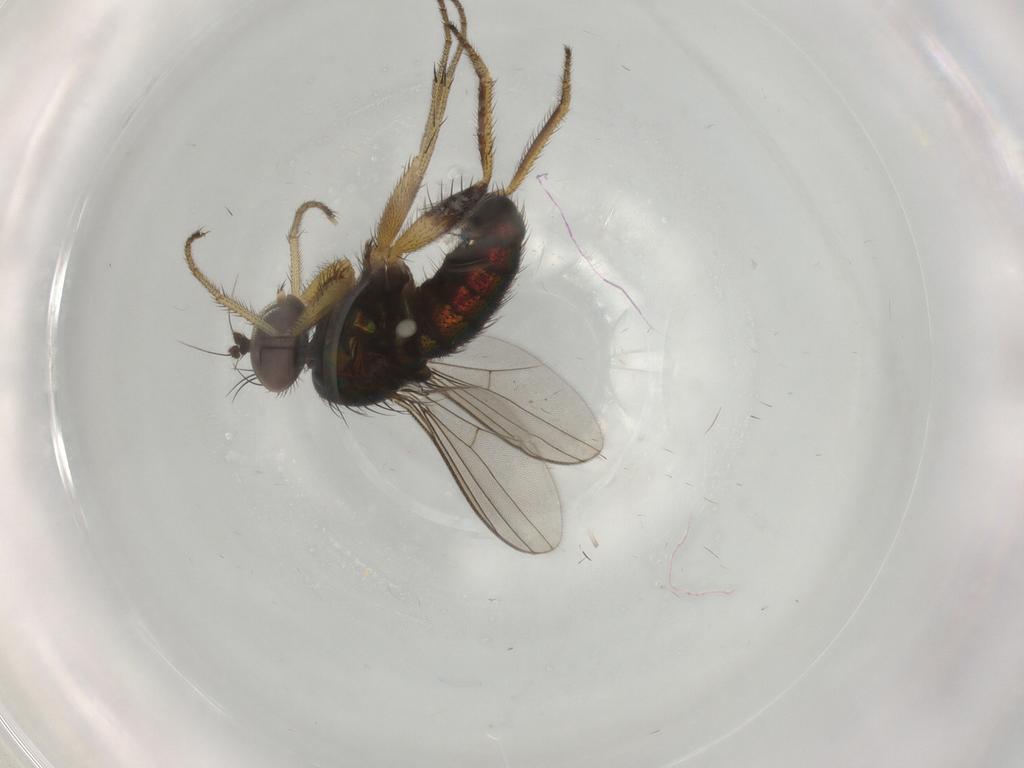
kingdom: Animalia
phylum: Arthropoda
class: Insecta
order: Diptera
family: Dolichopodidae
